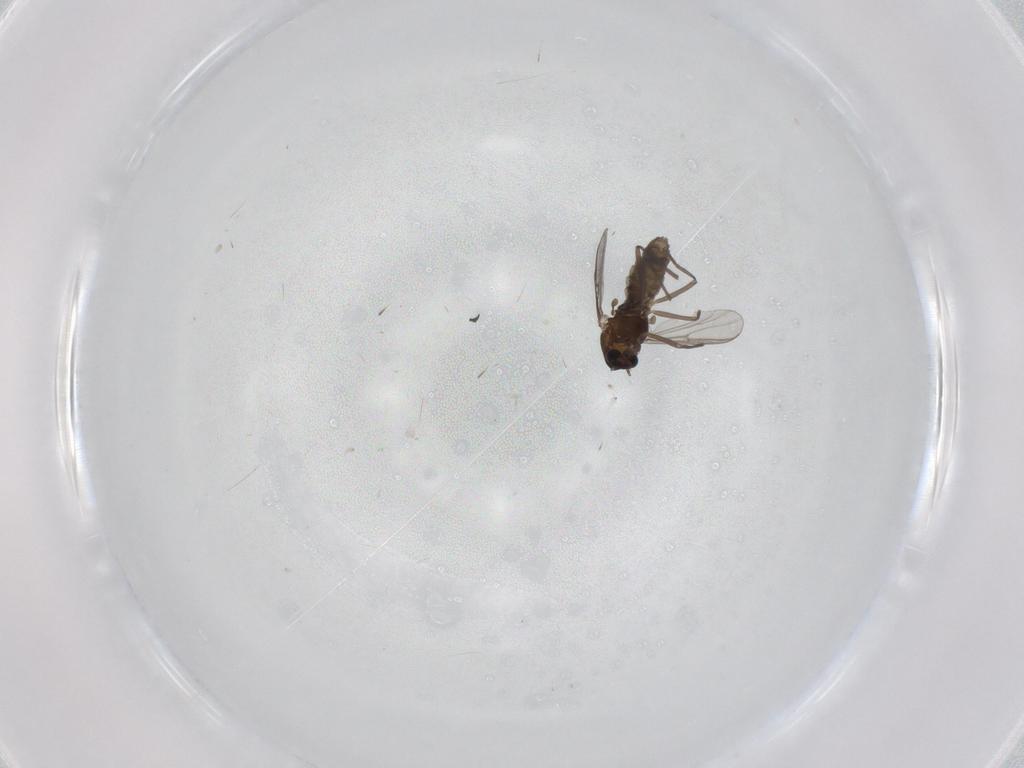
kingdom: Animalia
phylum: Arthropoda
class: Insecta
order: Diptera
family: Chironomidae
